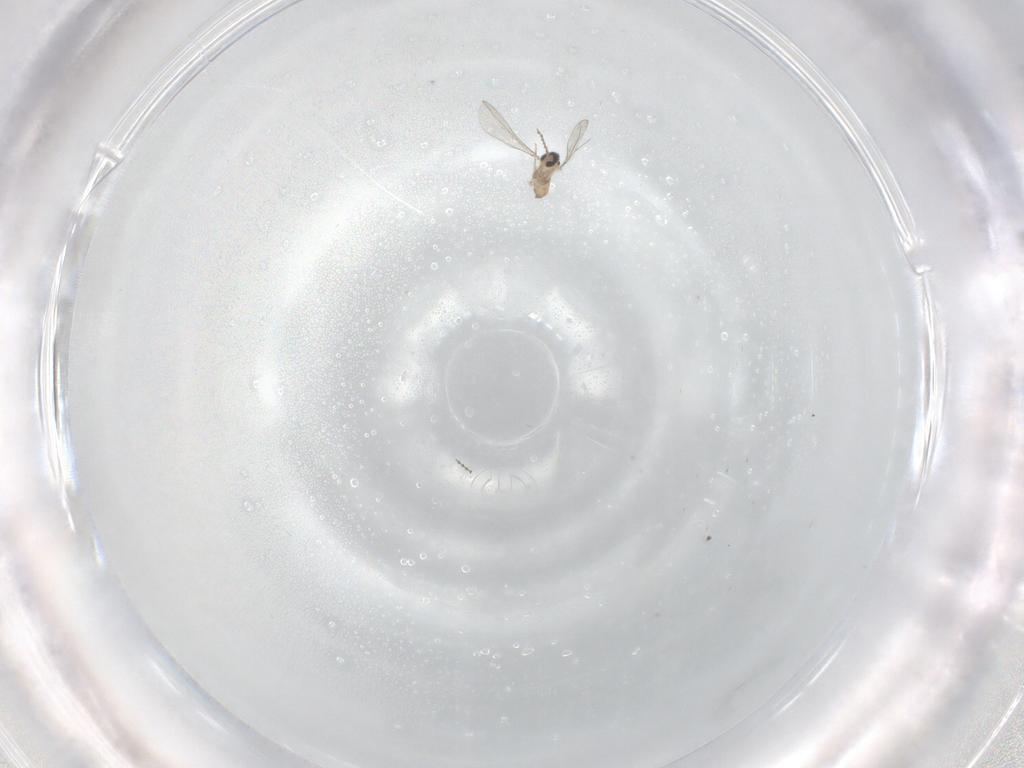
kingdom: Animalia
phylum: Arthropoda
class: Insecta
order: Diptera
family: Cecidomyiidae
